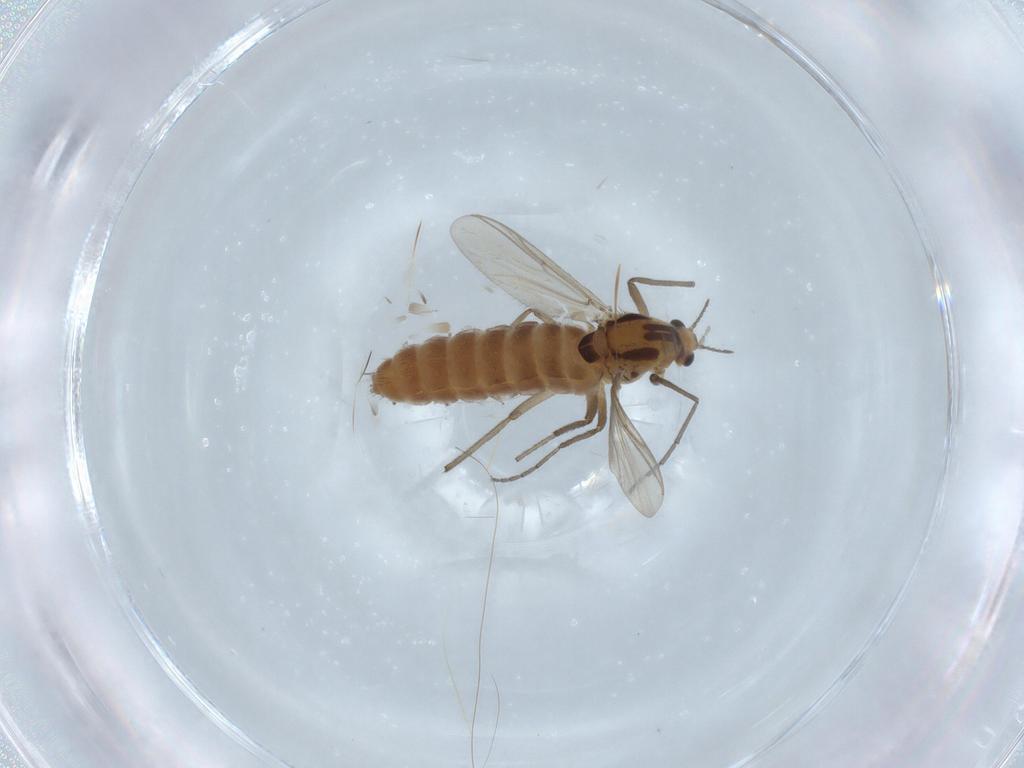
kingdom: Animalia
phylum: Arthropoda
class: Insecta
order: Diptera
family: Chironomidae
